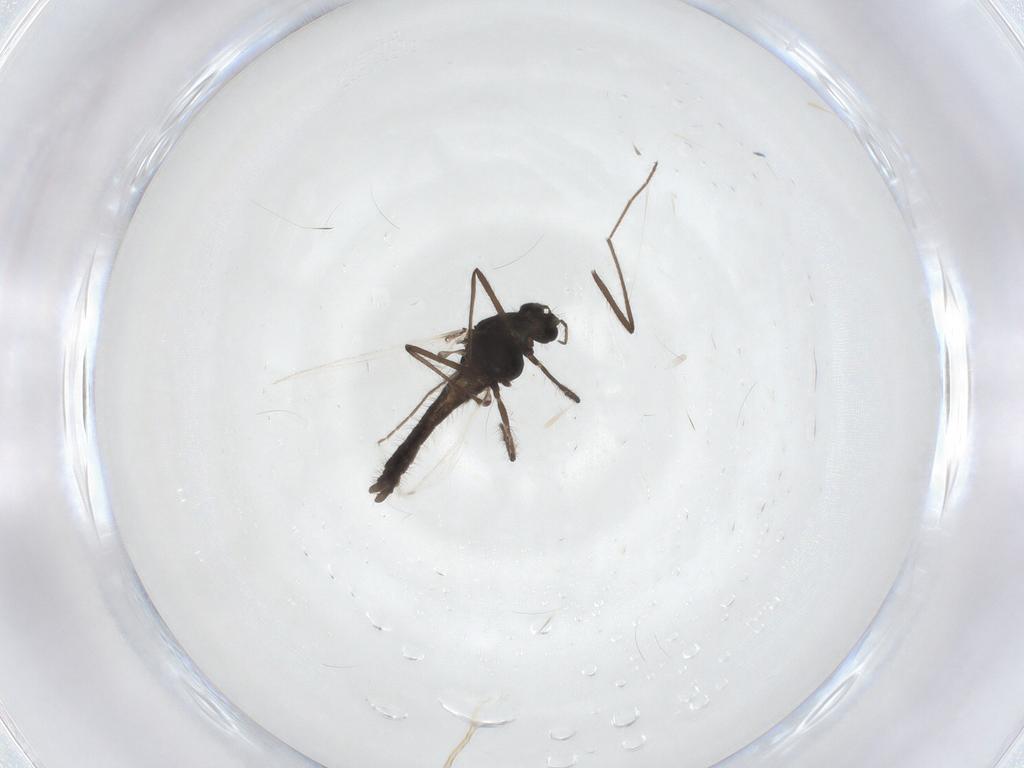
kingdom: Animalia
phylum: Arthropoda
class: Insecta
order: Diptera
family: Chironomidae
